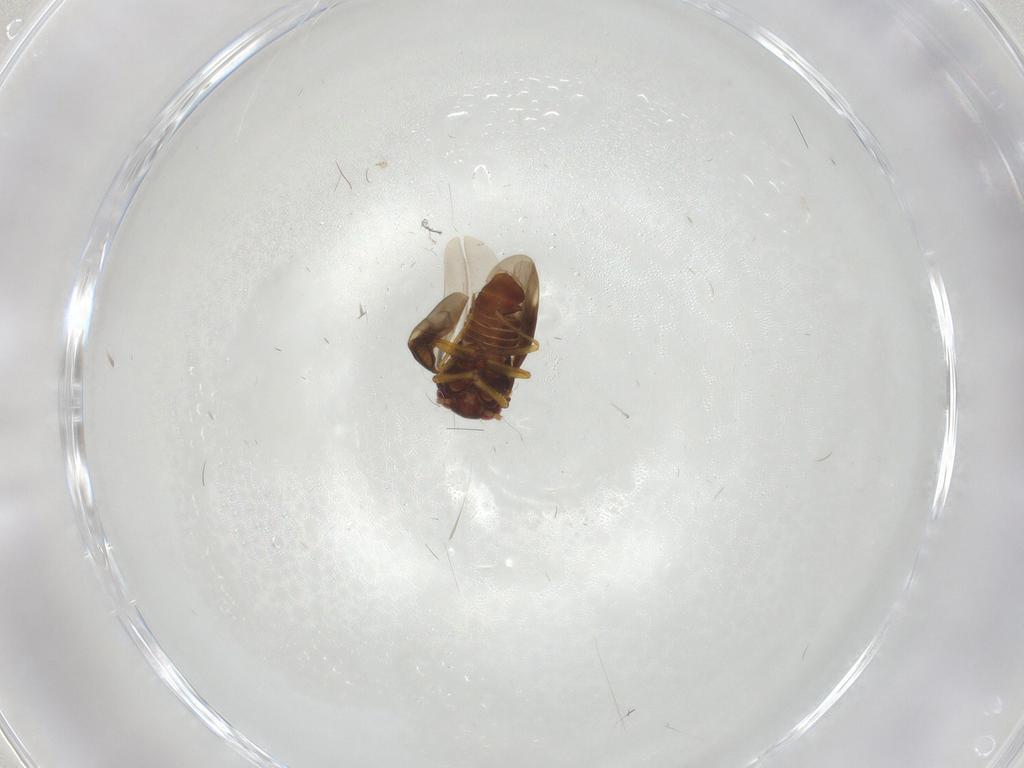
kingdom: Animalia
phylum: Arthropoda
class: Insecta
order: Hemiptera
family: Schizopteridae
